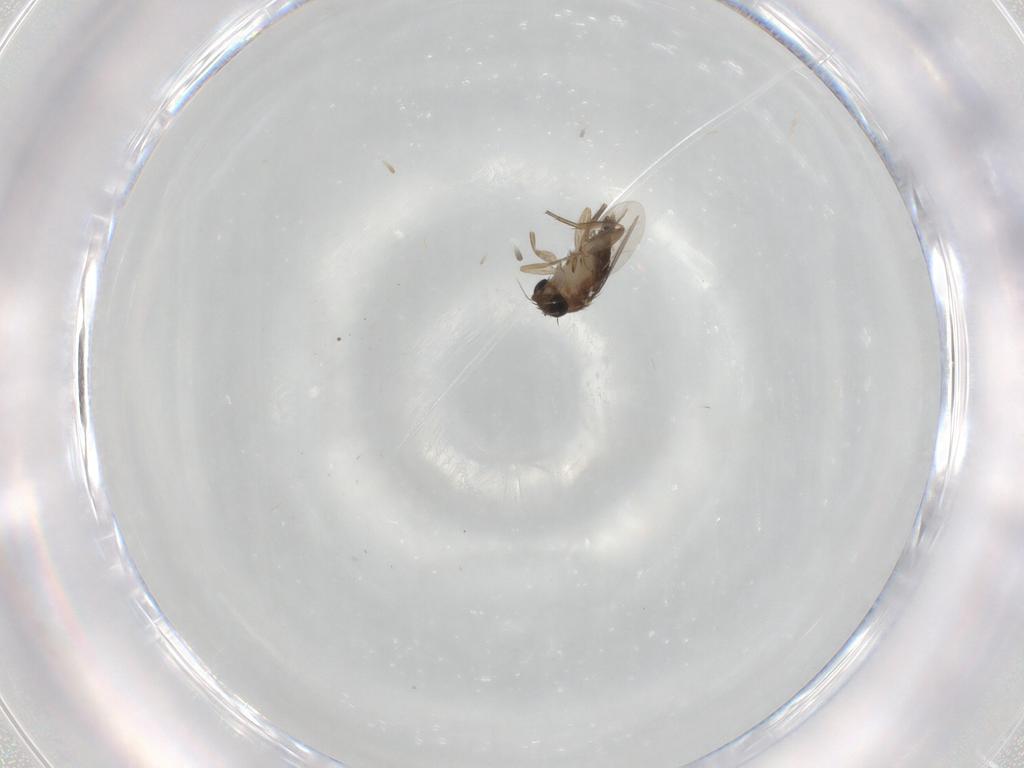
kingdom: Animalia
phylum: Arthropoda
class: Insecta
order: Diptera
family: Phoridae
